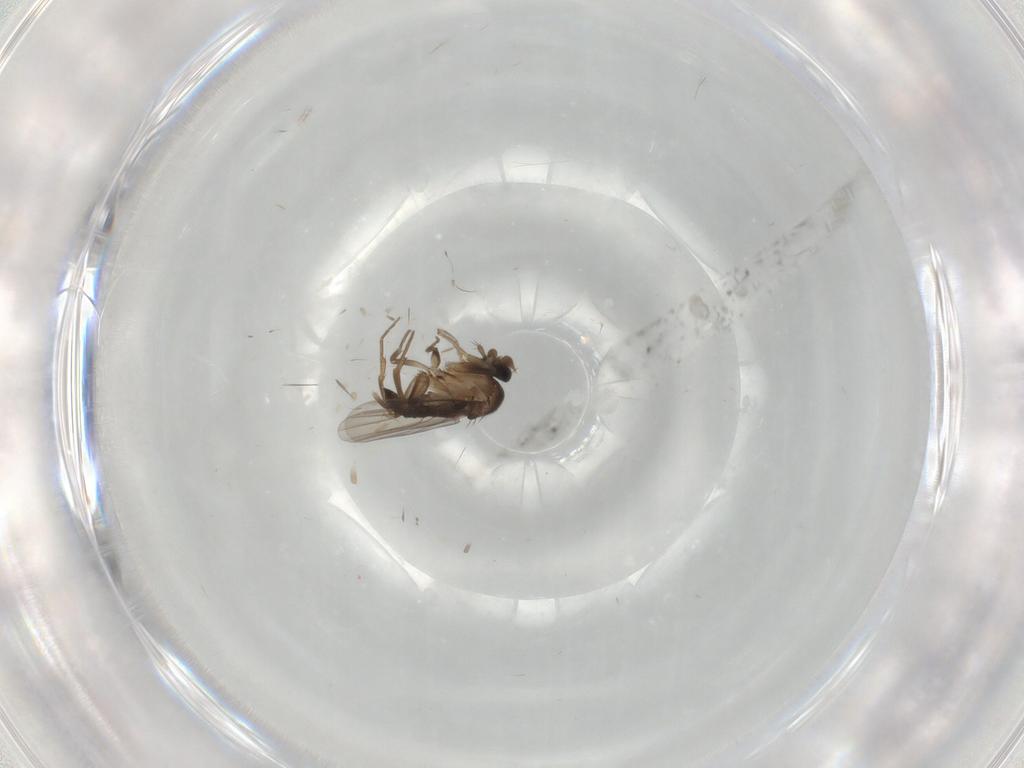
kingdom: Animalia
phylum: Arthropoda
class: Insecta
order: Diptera
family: Phoridae
